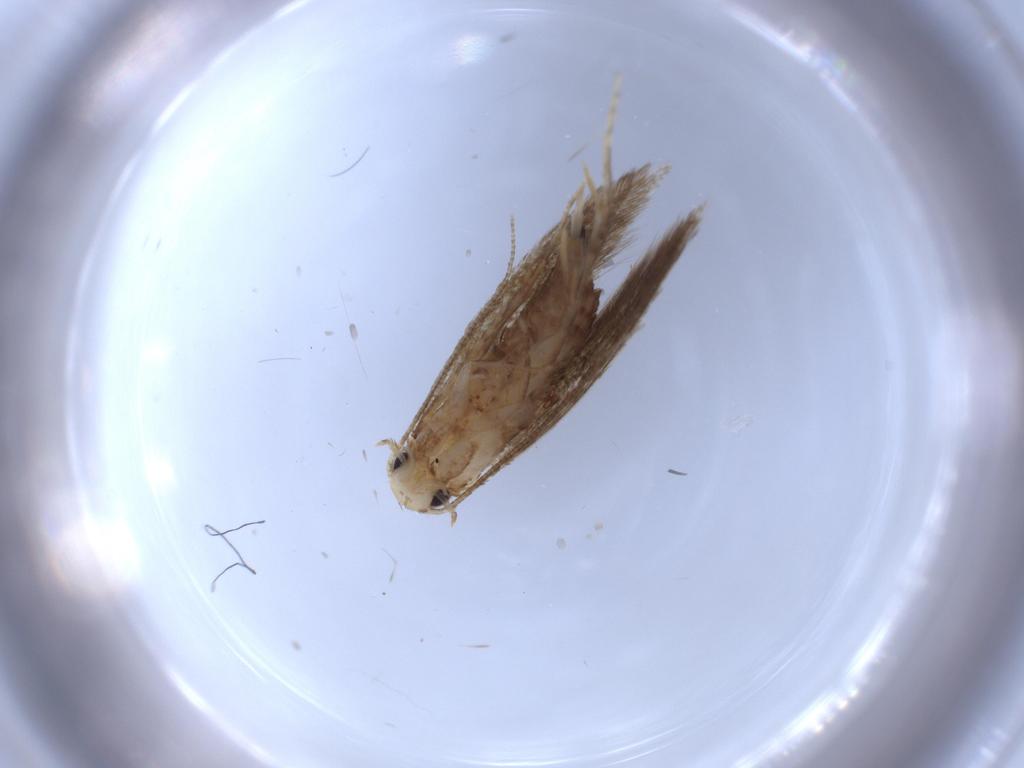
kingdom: Animalia
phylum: Arthropoda
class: Insecta
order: Lepidoptera
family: Tineidae
